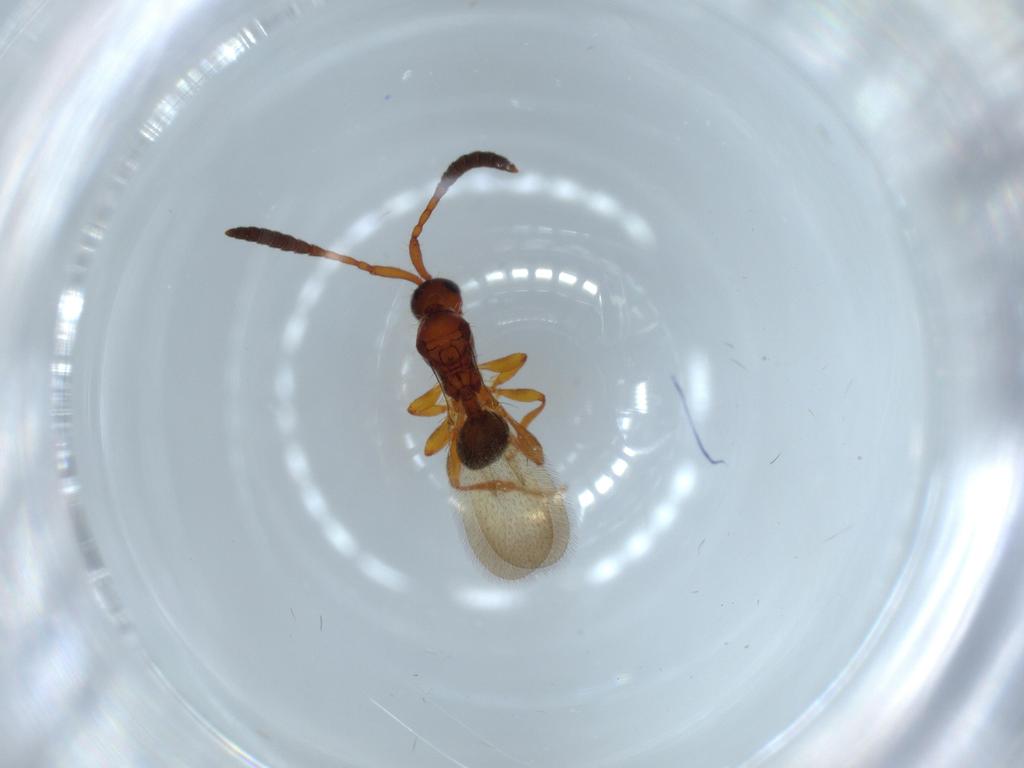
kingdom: Animalia
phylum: Arthropoda
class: Insecta
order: Hymenoptera
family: Diapriidae
